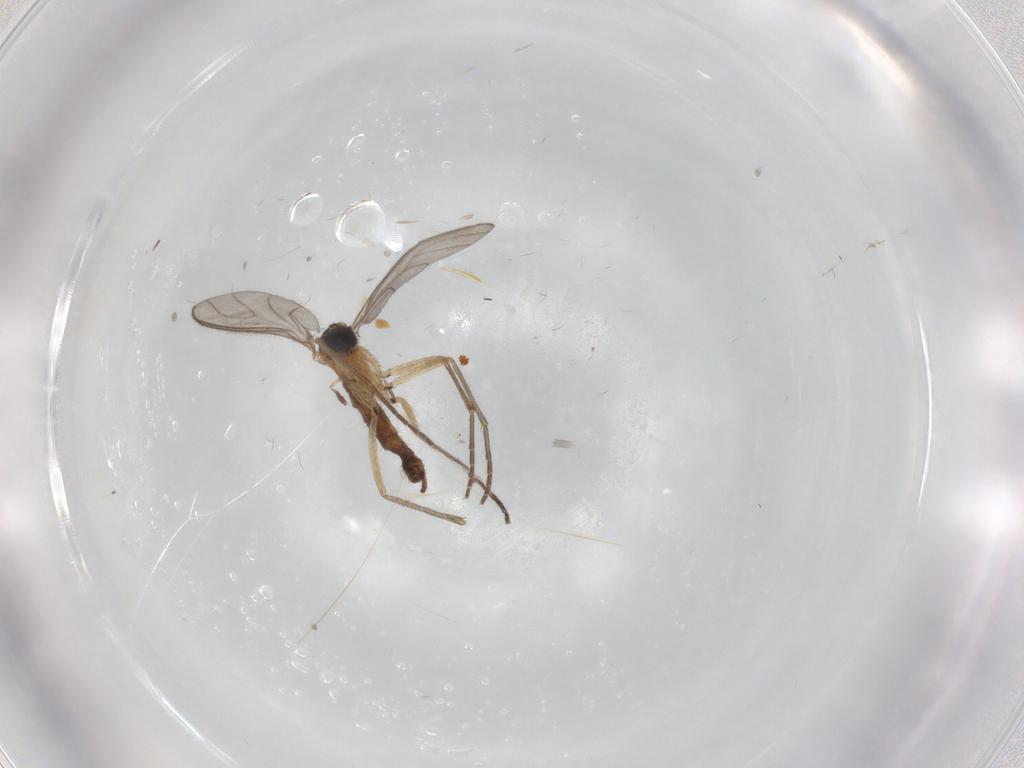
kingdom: Animalia
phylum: Arthropoda
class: Insecta
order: Diptera
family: Sciaridae
